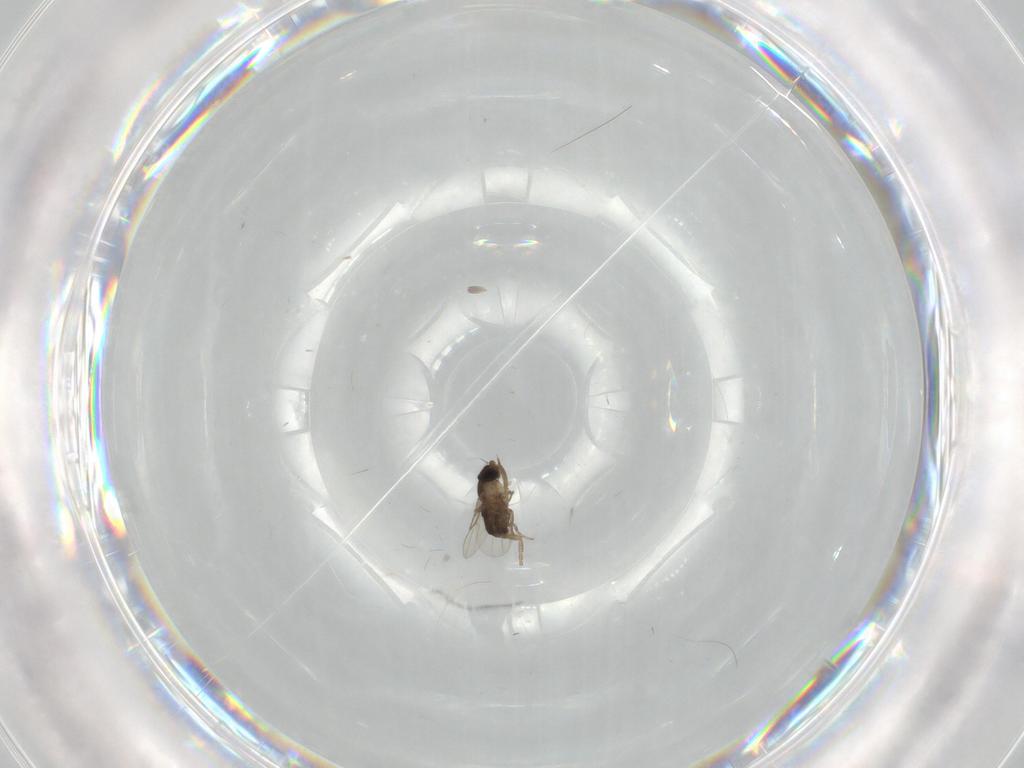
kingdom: Animalia
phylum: Arthropoda
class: Insecta
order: Diptera
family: Phoridae
